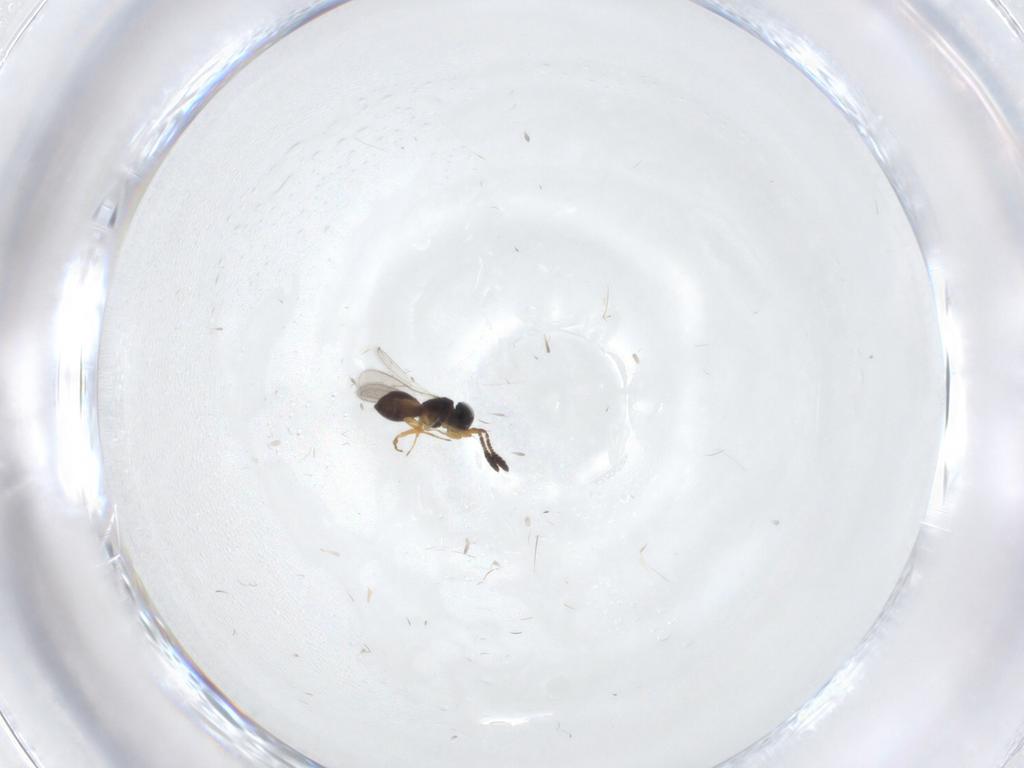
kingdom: Animalia
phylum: Arthropoda
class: Insecta
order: Hymenoptera
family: Scelionidae
